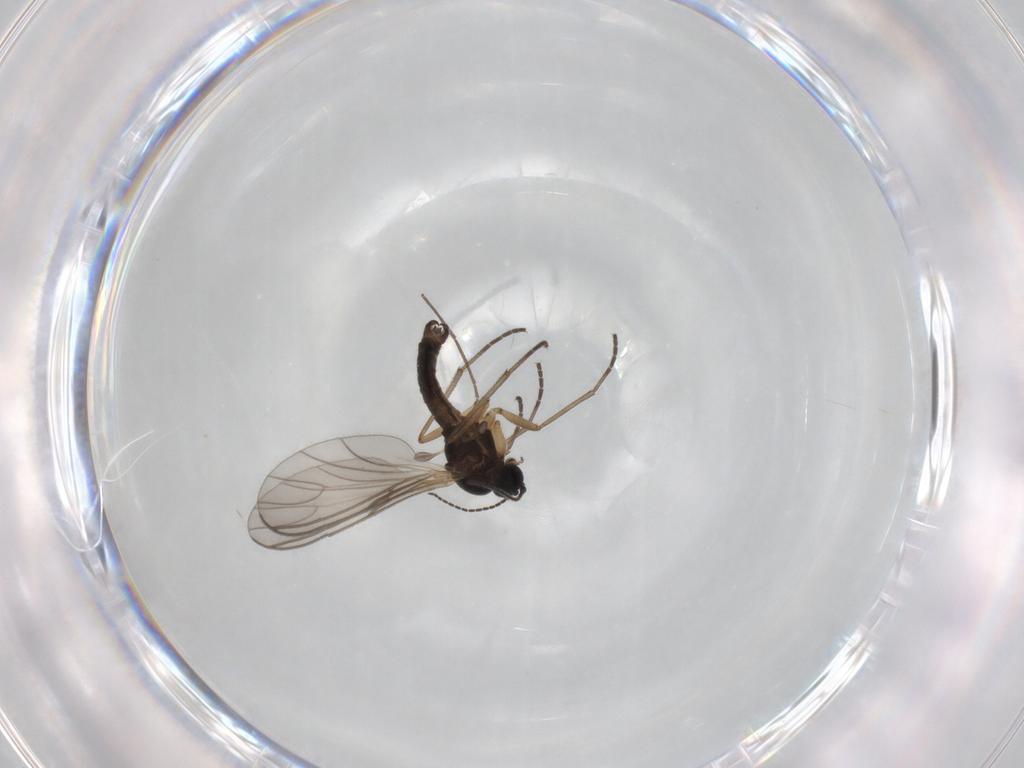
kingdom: Animalia
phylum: Arthropoda
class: Insecta
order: Diptera
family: Sciaridae
